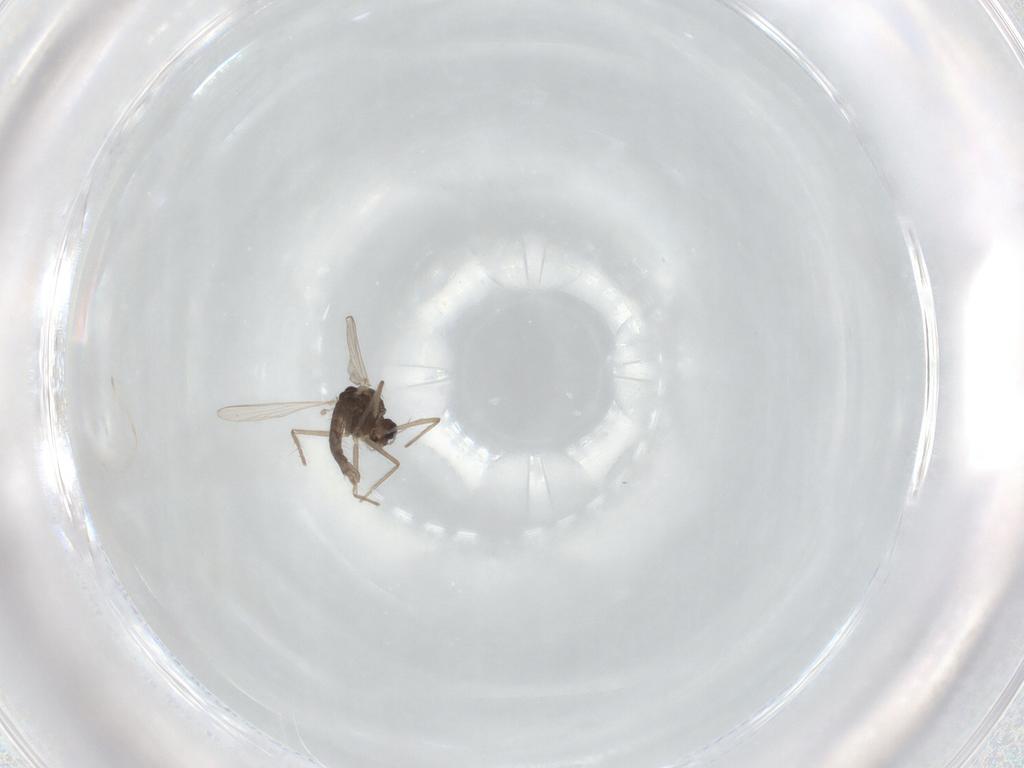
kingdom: Animalia
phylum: Arthropoda
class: Insecta
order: Diptera
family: Chironomidae
